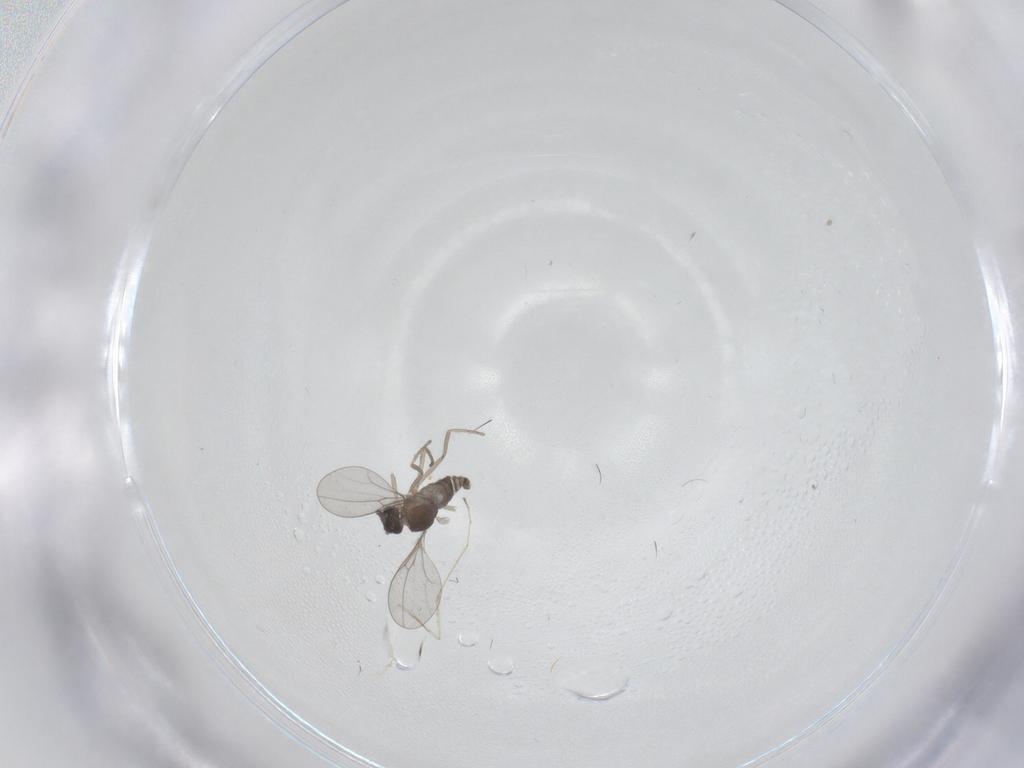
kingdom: Animalia
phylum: Arthropoda
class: Insecta
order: Diptera
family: Cecidomyiidae
